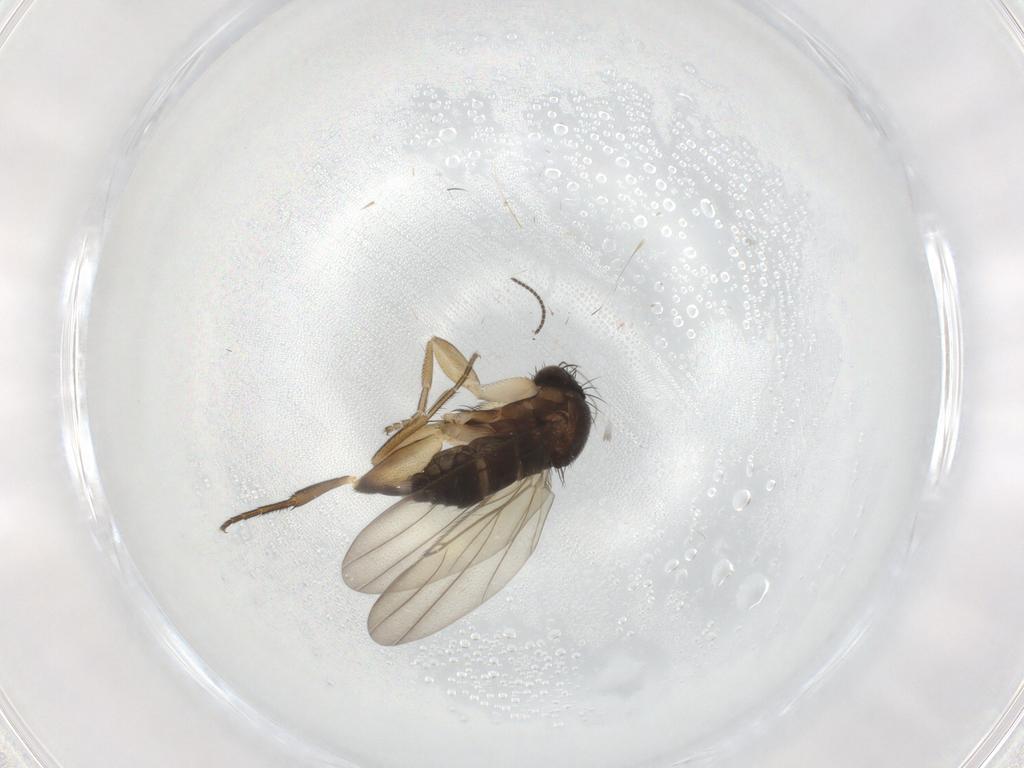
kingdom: Animalia
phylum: Arthropoda
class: Insecta
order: Diptera
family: Phoridae
